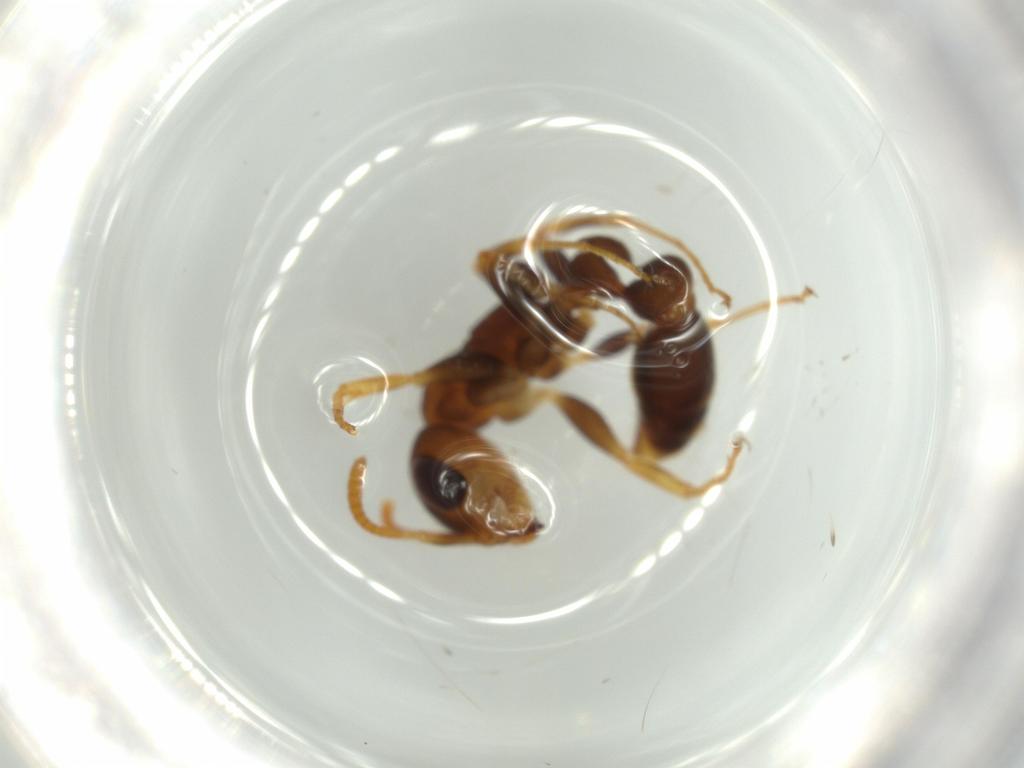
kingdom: Animalia
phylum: Arthropoda
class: Insecta
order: Hymenoptera
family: Formicidae
